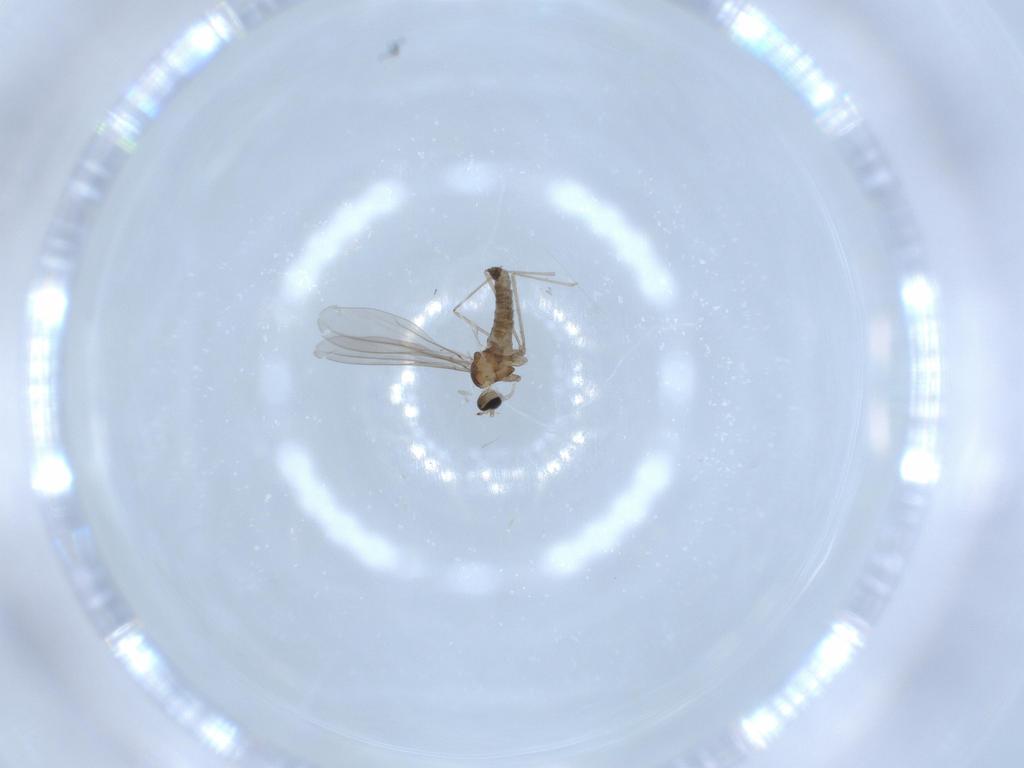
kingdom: Animalia
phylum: Arthropoda
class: Insecta
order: Diptera
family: Cecidomyiidae
